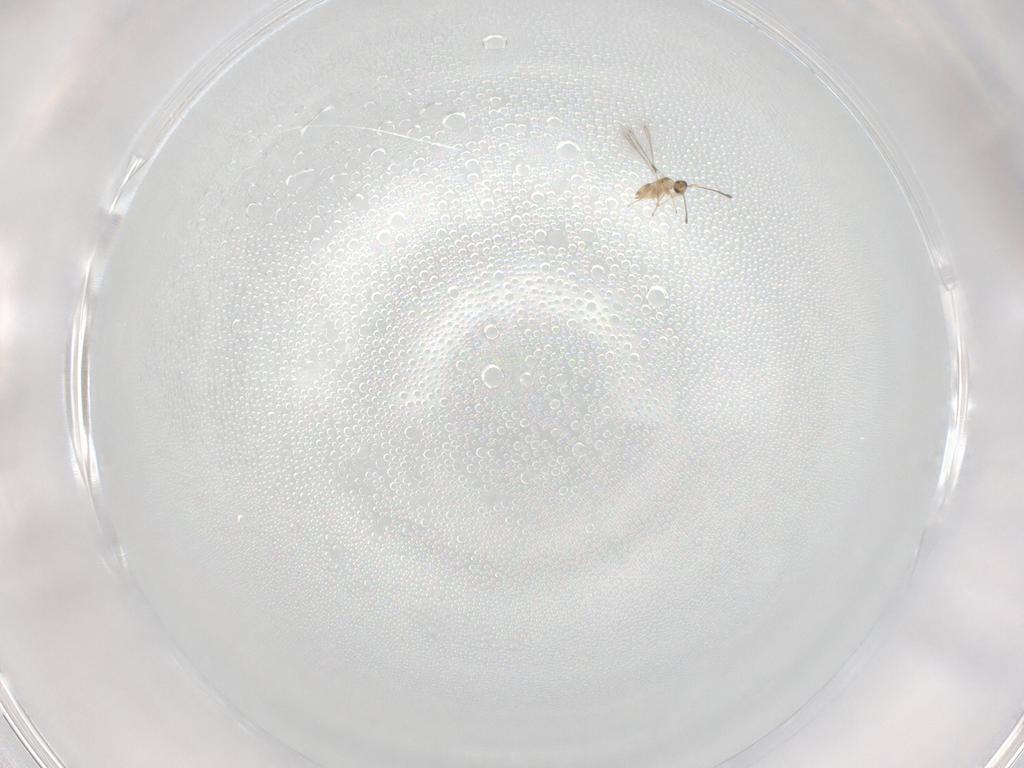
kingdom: Animalia
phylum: Arthropoda
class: Insecta
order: Hymenoptera
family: Mymaridae
